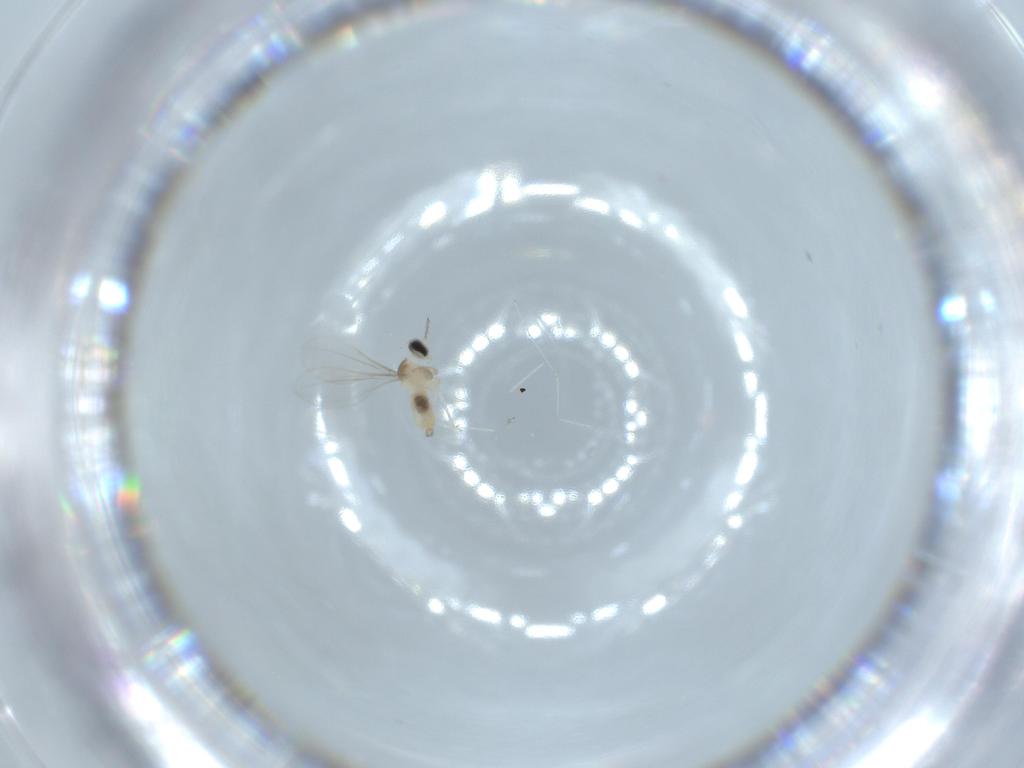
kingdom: Animalia
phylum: Arthropoda
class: Insecta
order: Diptera
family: Cecidomyiidae
